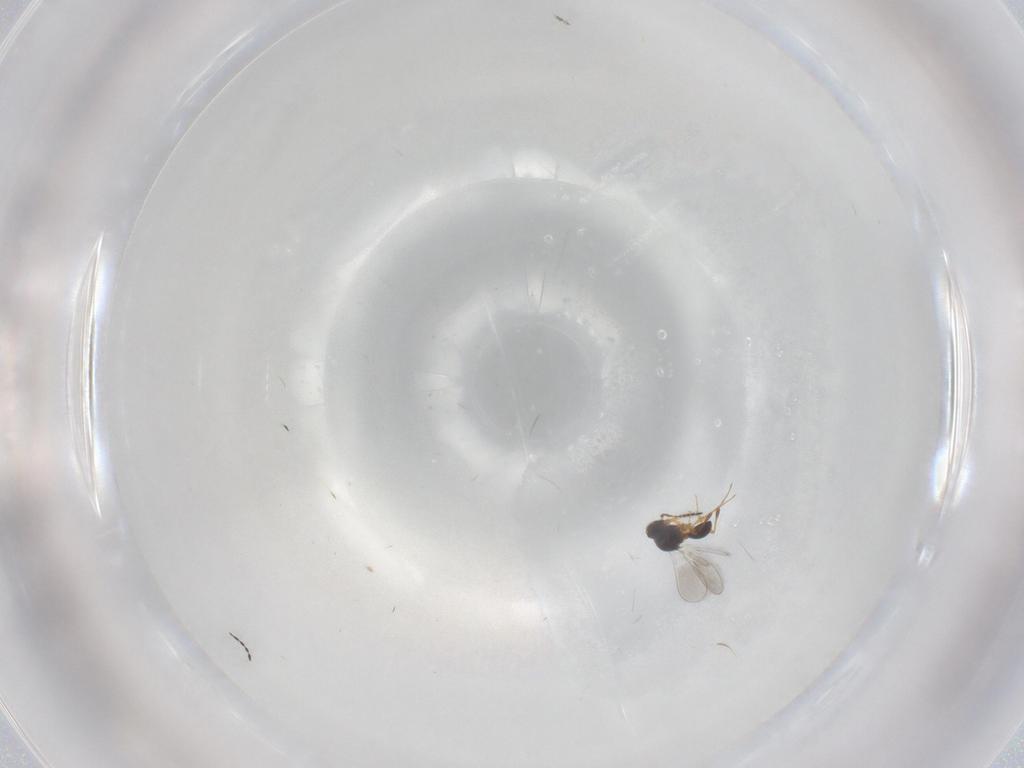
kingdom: Animalia
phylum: Arthropoda
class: Insecta
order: Hymenoptera
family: Platygastridae
